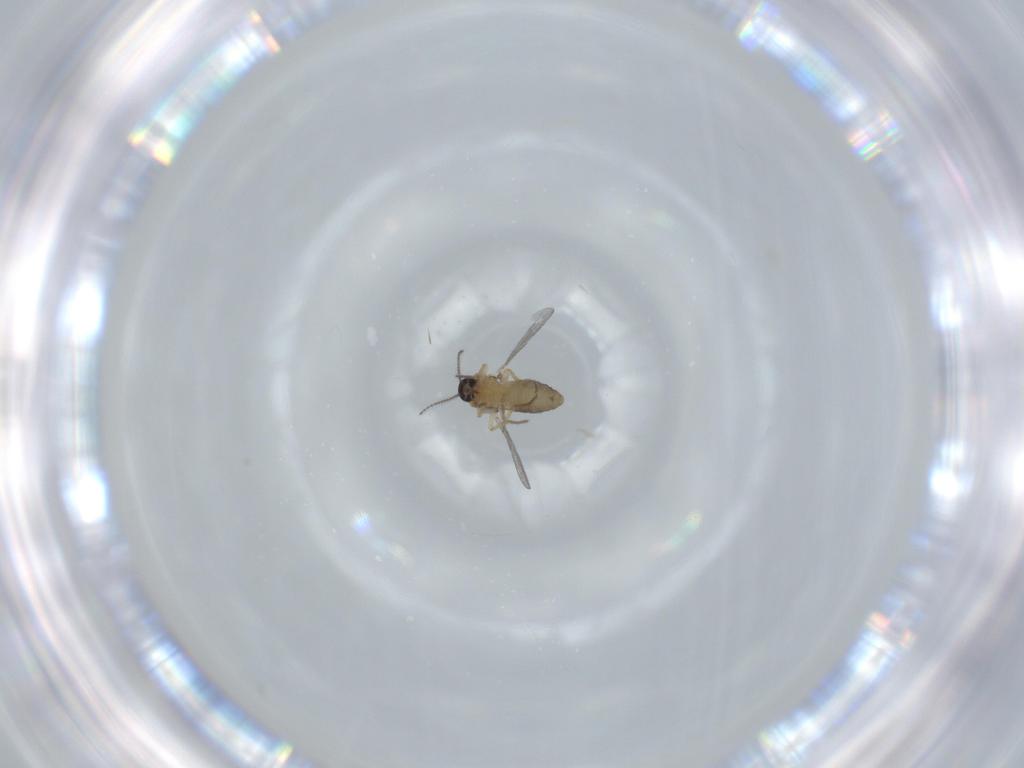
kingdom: Animalia
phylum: Arthropoda
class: Insecta
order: Diptera
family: Ceratopogonidae
